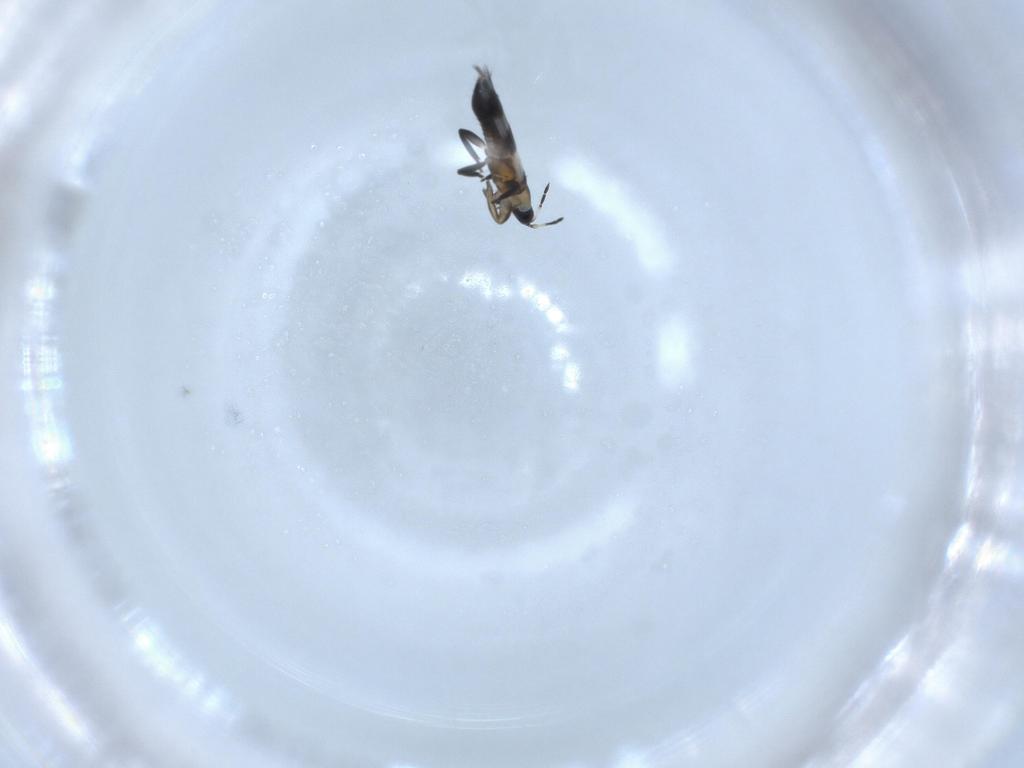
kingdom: Animalia
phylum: Arthropoda
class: Insecta
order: Thysanoptera
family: Aeolothripidae
